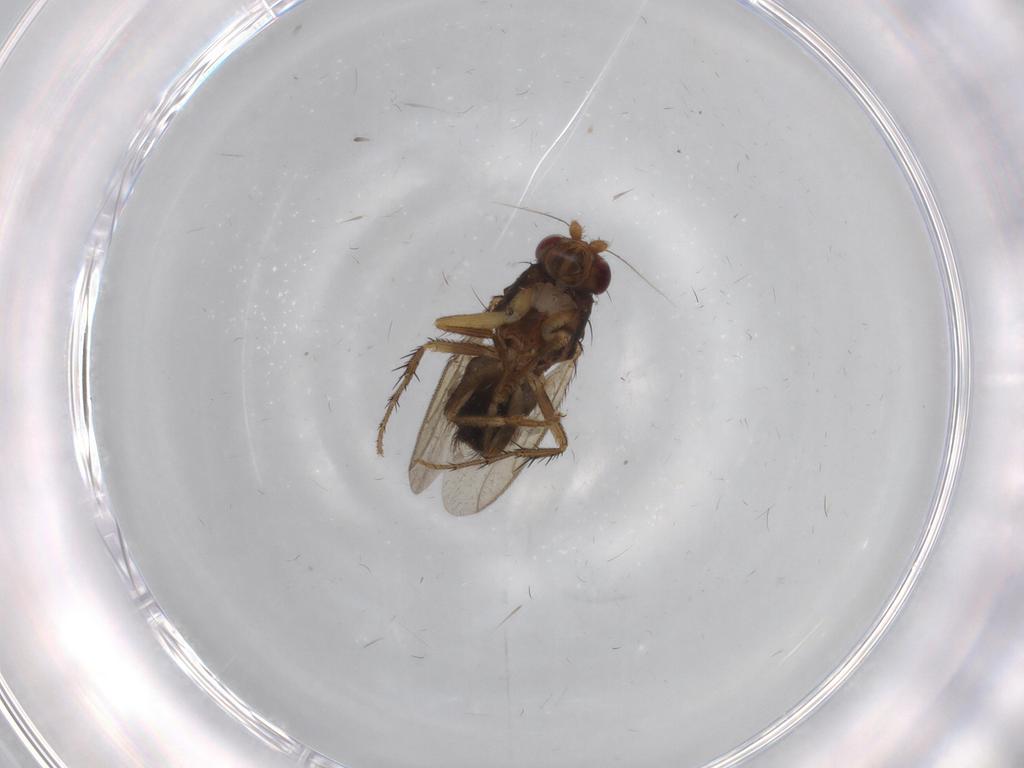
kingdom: Animalia
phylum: Arthropoda
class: Insecta
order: Diptera
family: Sphaeroceridae
